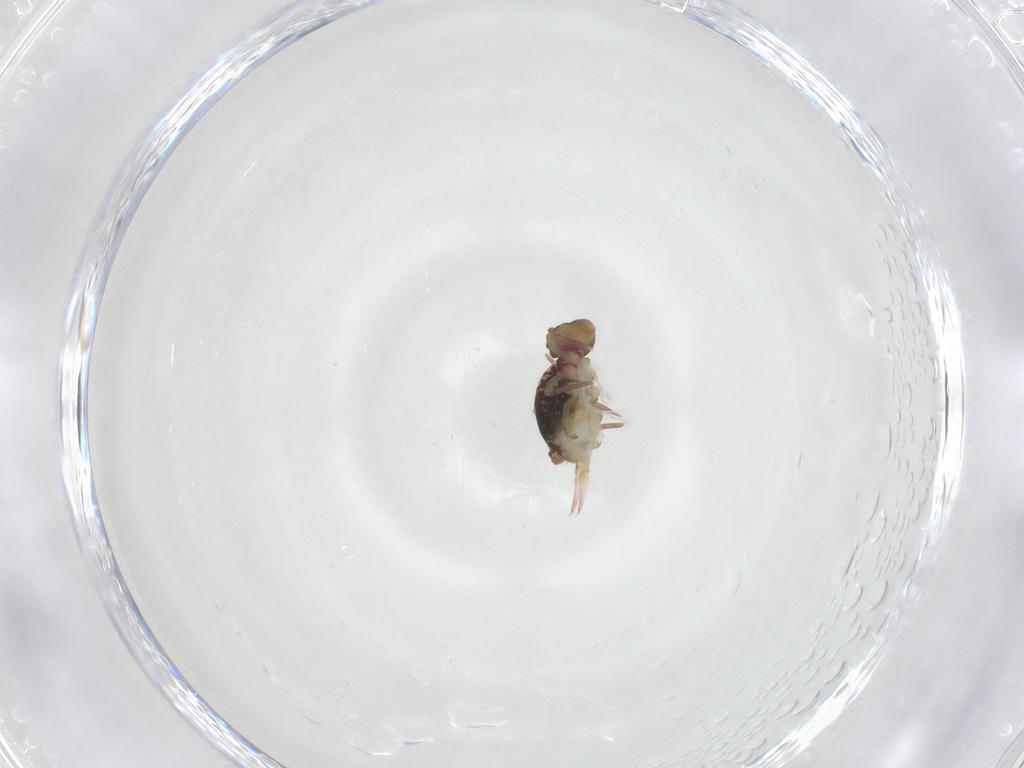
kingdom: Animalia
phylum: Arthropoda
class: Collembola
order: Symphypleona
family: Dicyrtomidae
